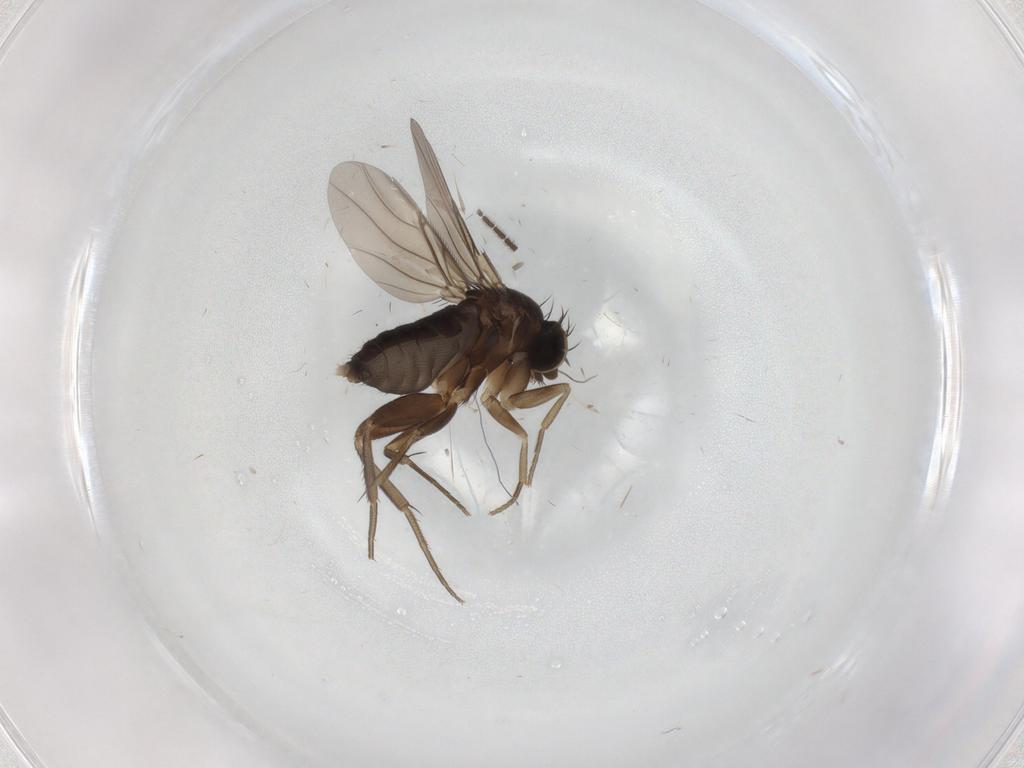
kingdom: Animalia
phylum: Arthropoda
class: Insecta
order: Diptera
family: Phoridae
